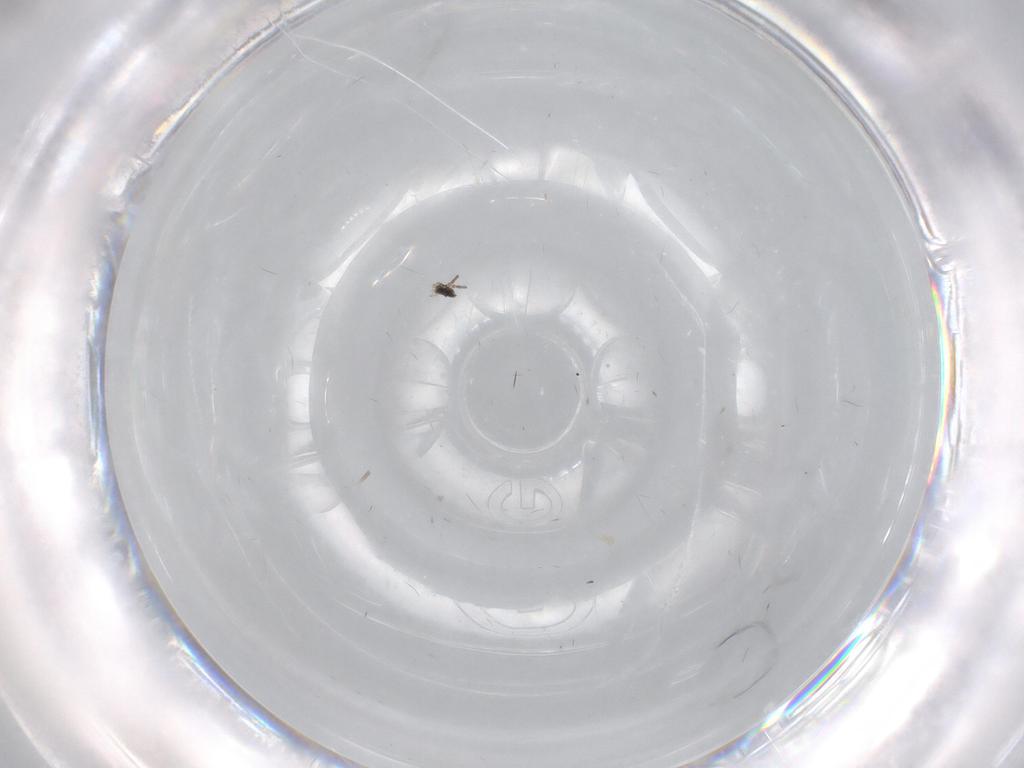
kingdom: Animalia
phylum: Arthropoda
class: Insecta
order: Diptera
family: Cecidomyiidae
